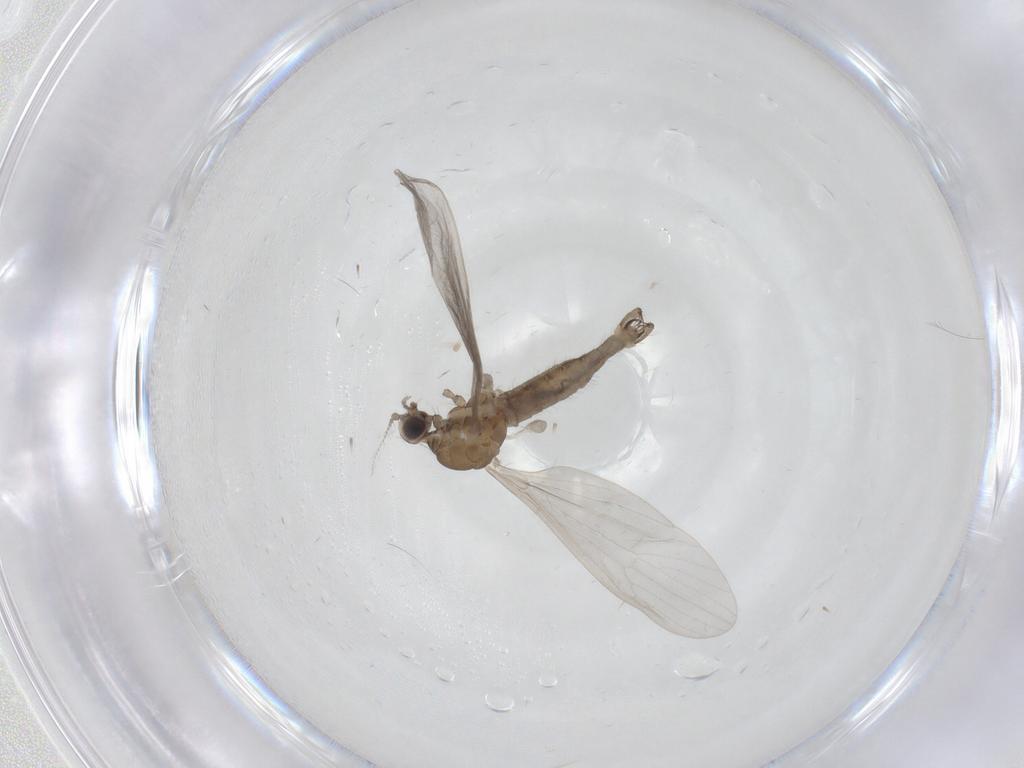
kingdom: Animalia
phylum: Arthropoda
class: Insecta
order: Diptera
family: Limoniidae
